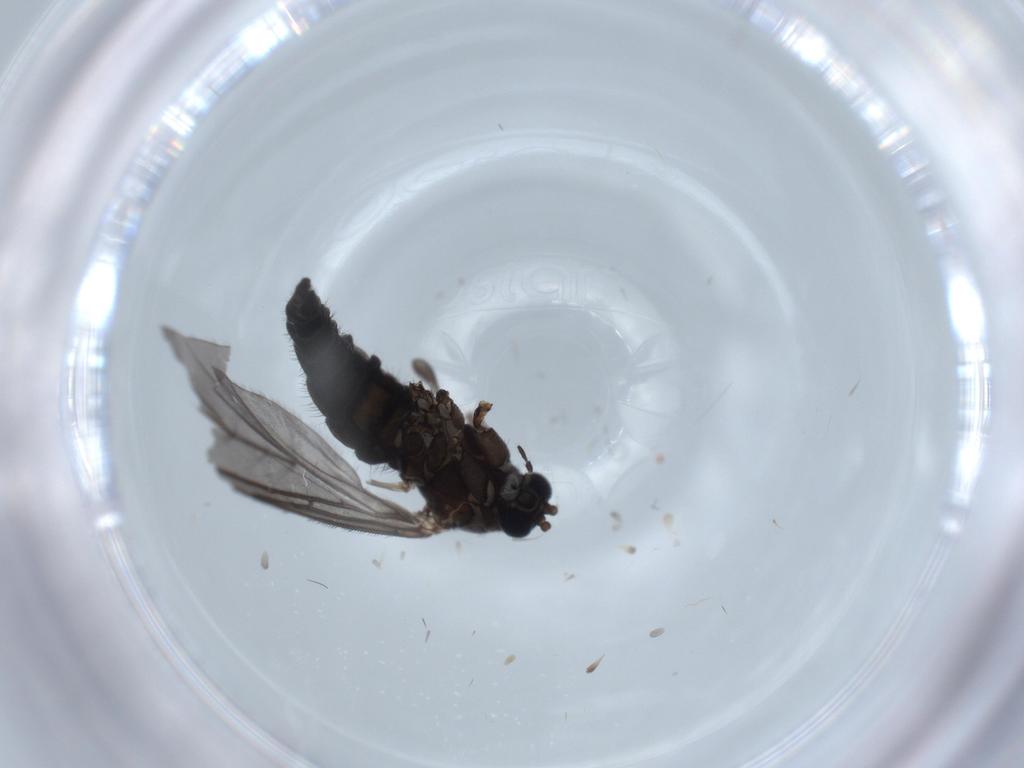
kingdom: Animalia
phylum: Arthropoda
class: Insecta
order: Diptera
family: Sciaridae
